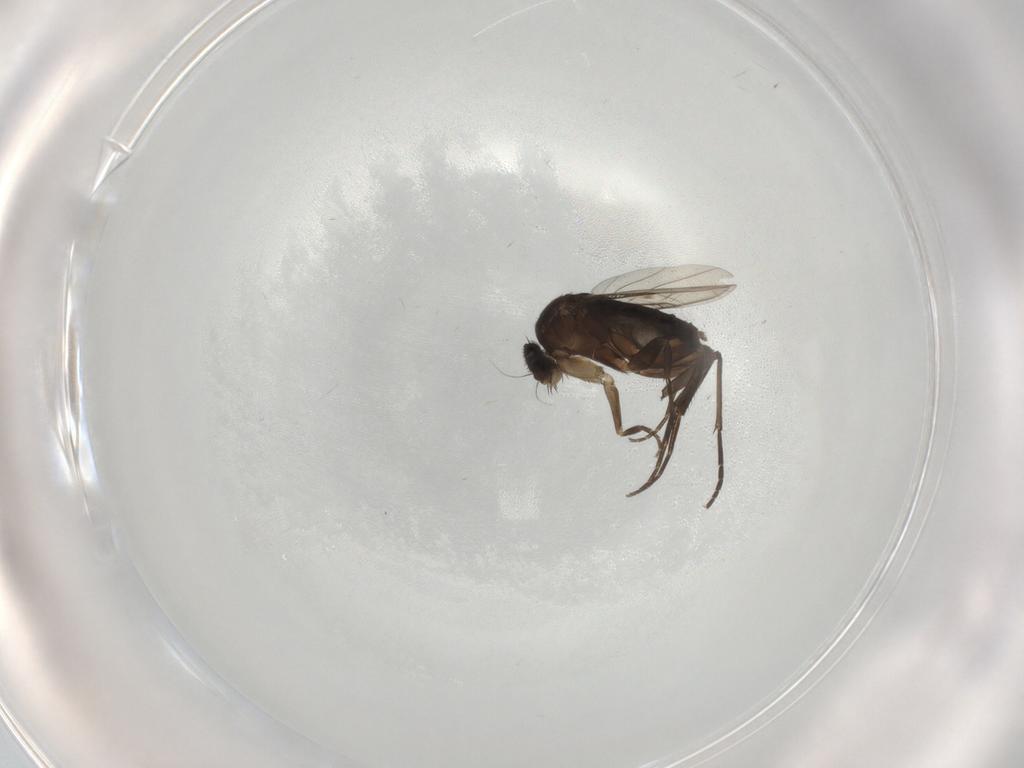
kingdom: Animalia
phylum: Arthropoda
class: Insecta
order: Diptera
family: Phoridae
